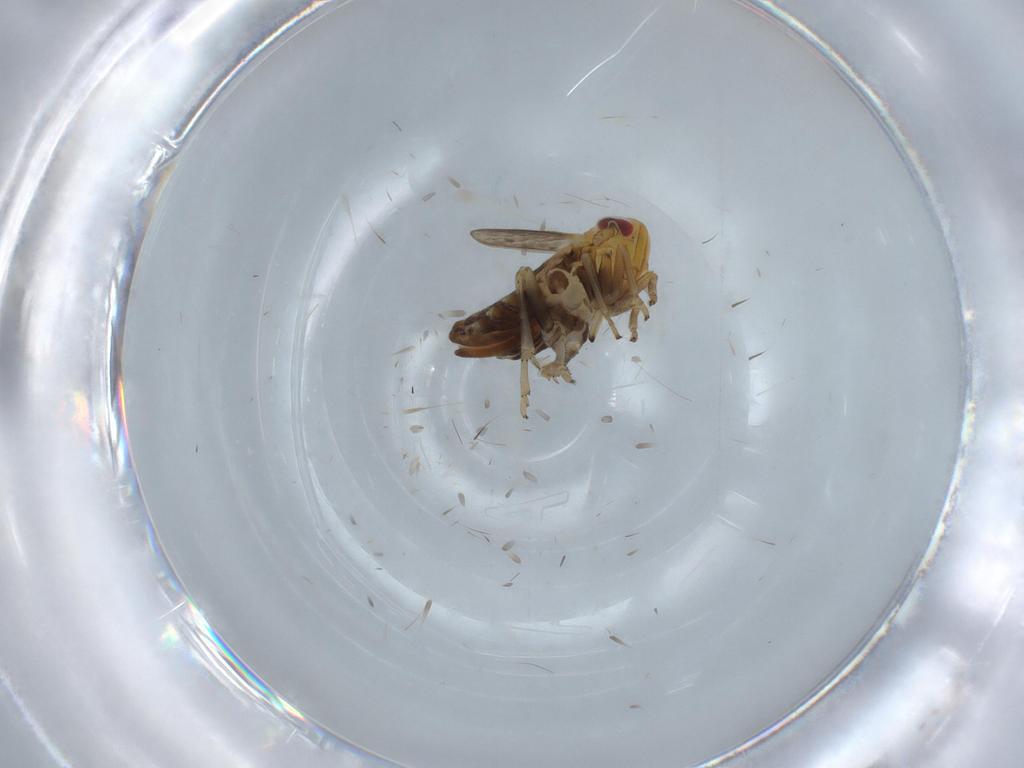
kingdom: Animalia
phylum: Arthropoda
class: Insecta
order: Hemiptera
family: Delphacidae
